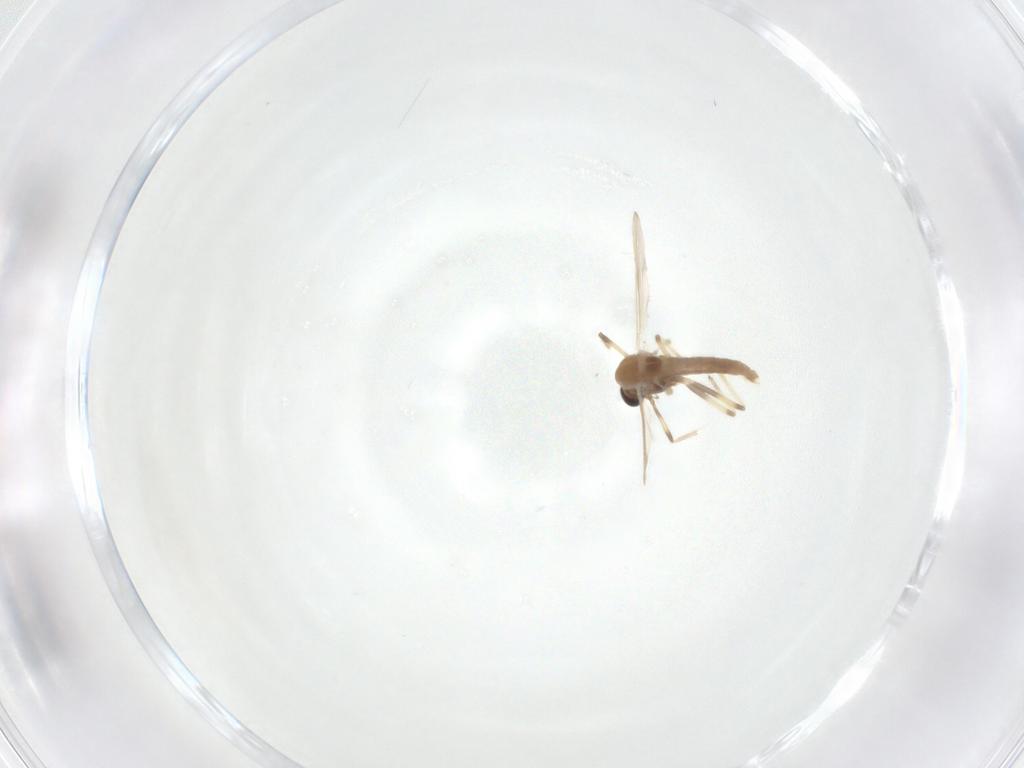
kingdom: Animalia
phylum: Arthropoda
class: Insecta
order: Diptera
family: Chironomidae
